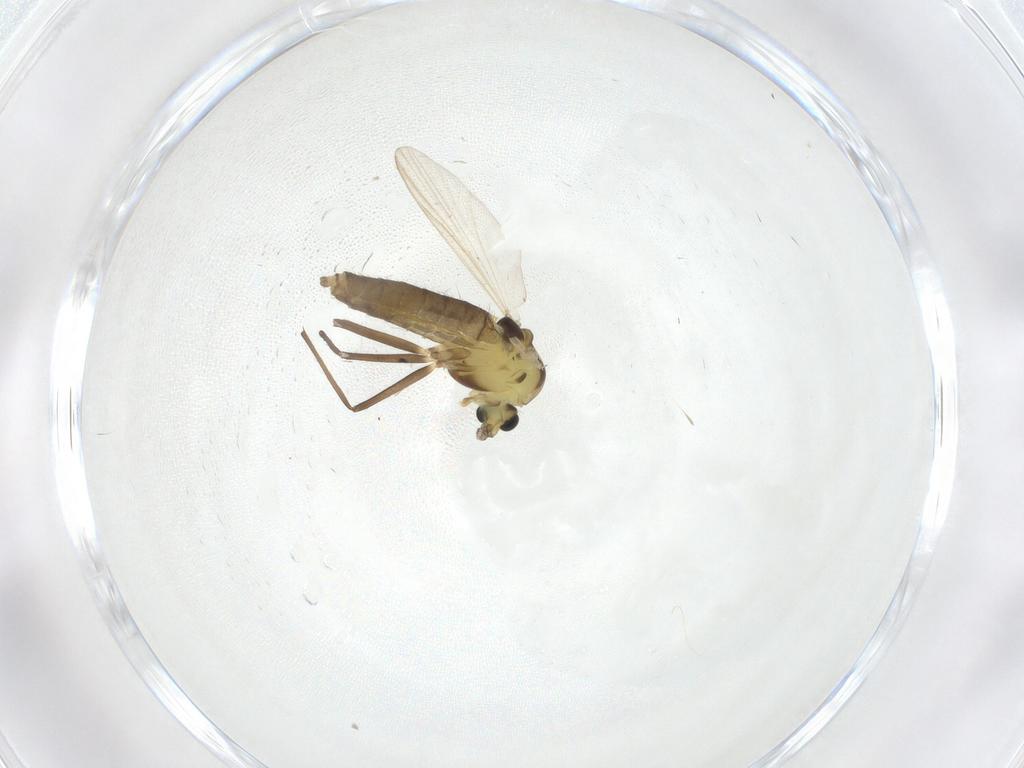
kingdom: Animalia
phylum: Arthropoda
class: Insecta
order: Diptera
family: Chironomidae
